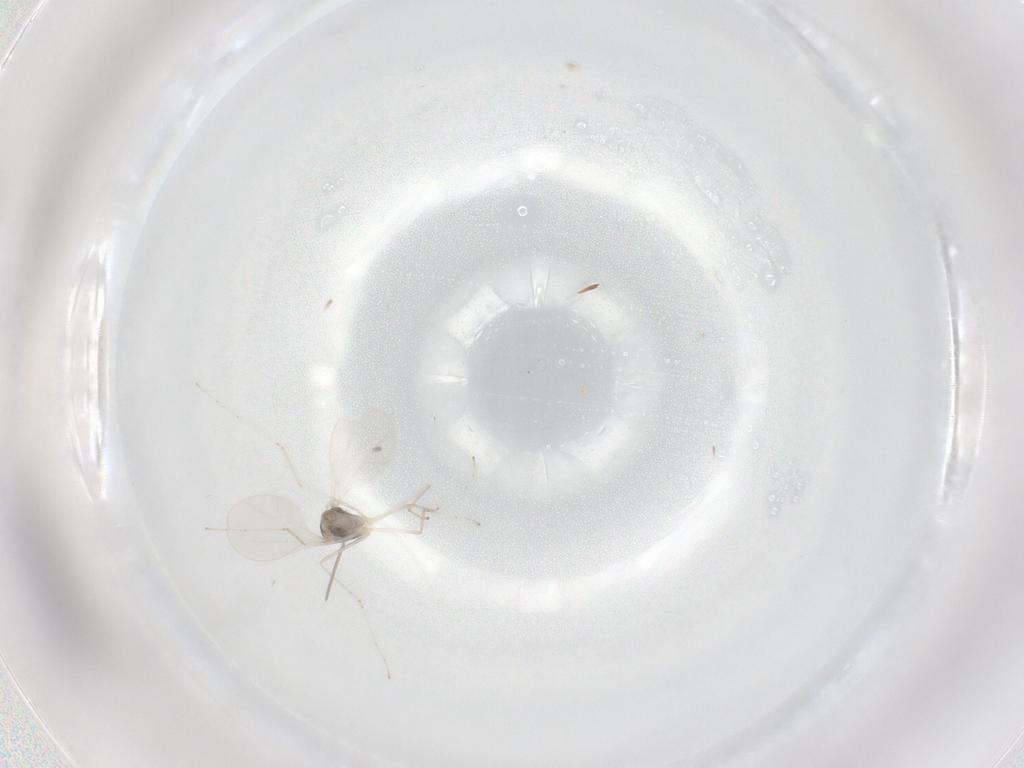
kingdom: Animalia
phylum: Arthropoda
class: Insecta
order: Diptera
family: Cecidomyiidae
